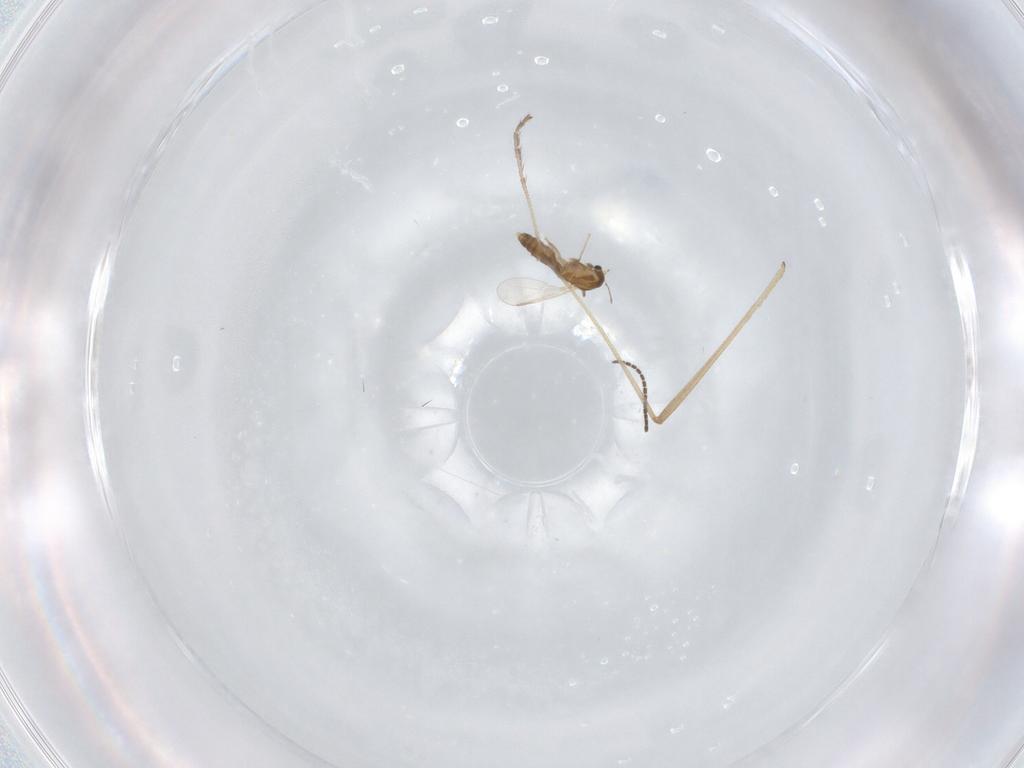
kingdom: Animalia
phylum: Arthropoda
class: Insecta
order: Diptera
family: Limoniidae
